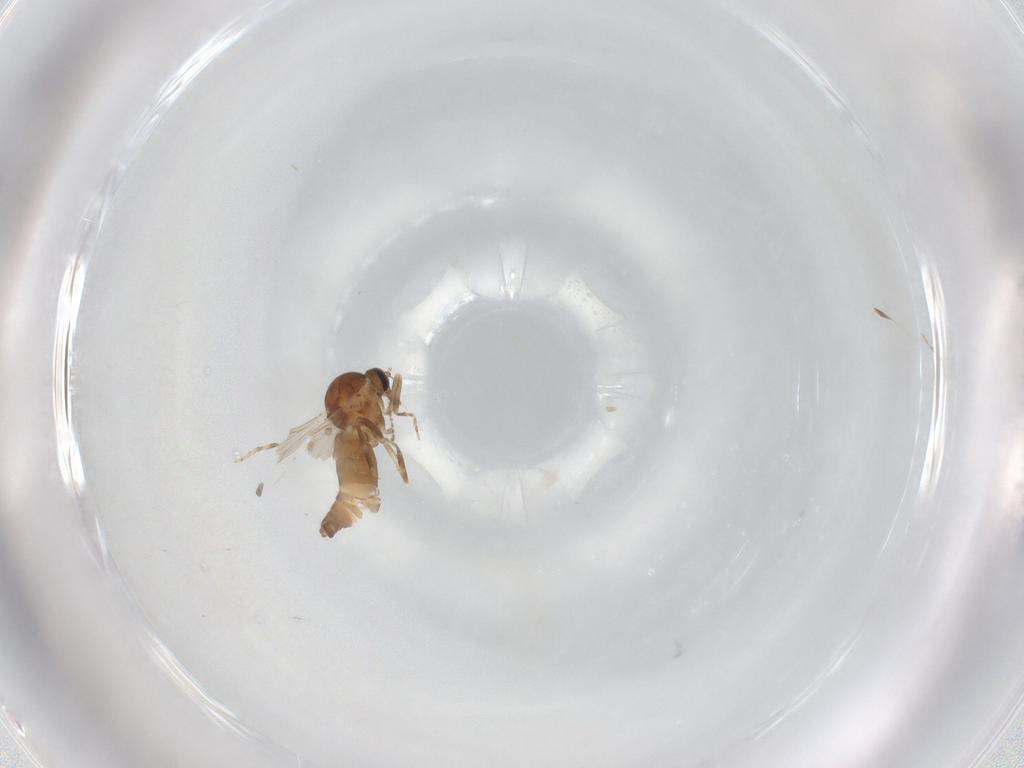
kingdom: Animalia
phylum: Arthropoda
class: Insecta
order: Diptera
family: Ceratopogonidae
